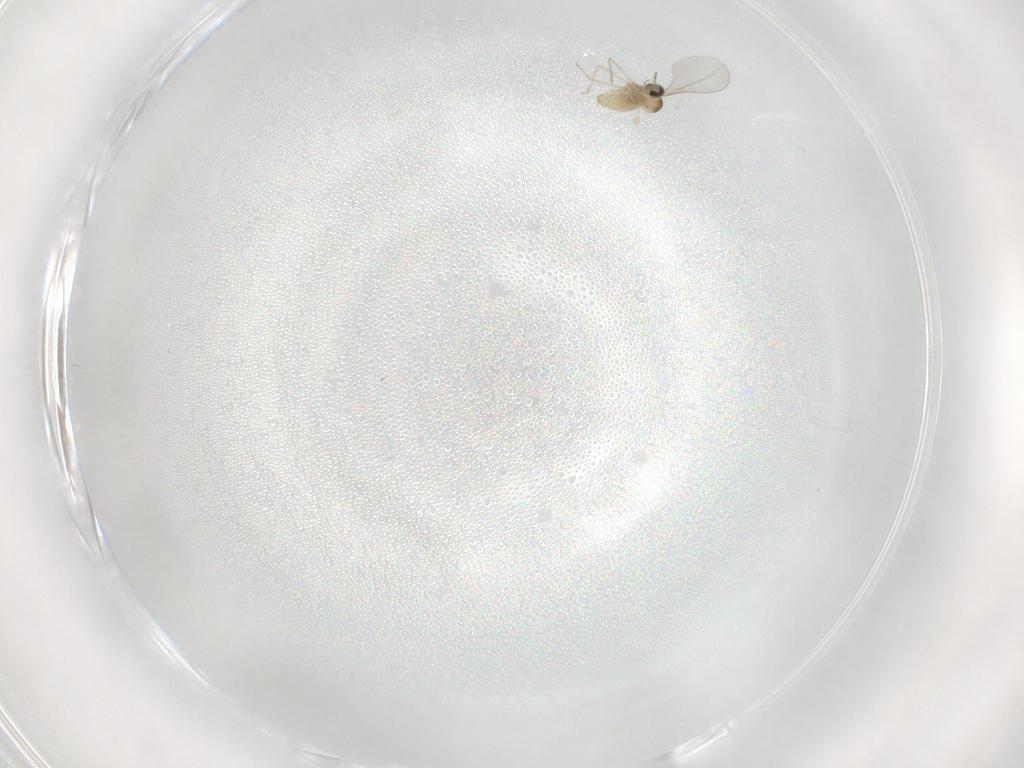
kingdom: Animalia
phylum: Arthropoda
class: Insecta
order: Diptera
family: Cecidomyiidae
